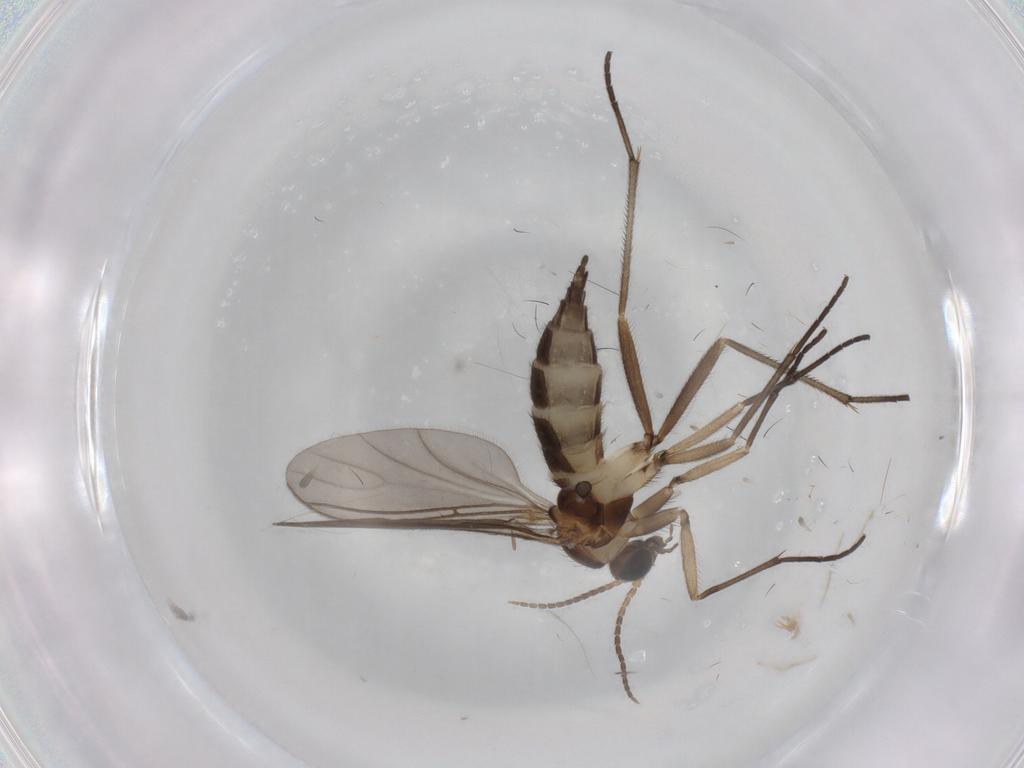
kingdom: Animalia
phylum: Arthropoda
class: Insecta
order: Diptera
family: Sciaridae
